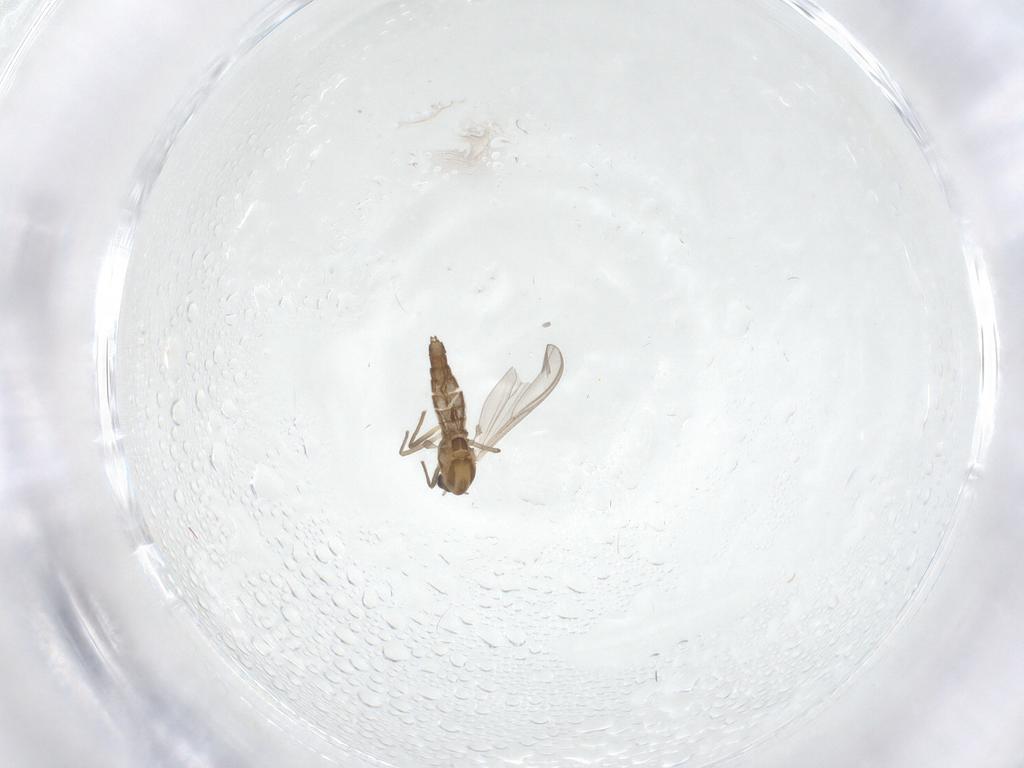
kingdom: Animalia
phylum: Arthropoda
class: Insecta
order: Diptera
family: Chironomidae
